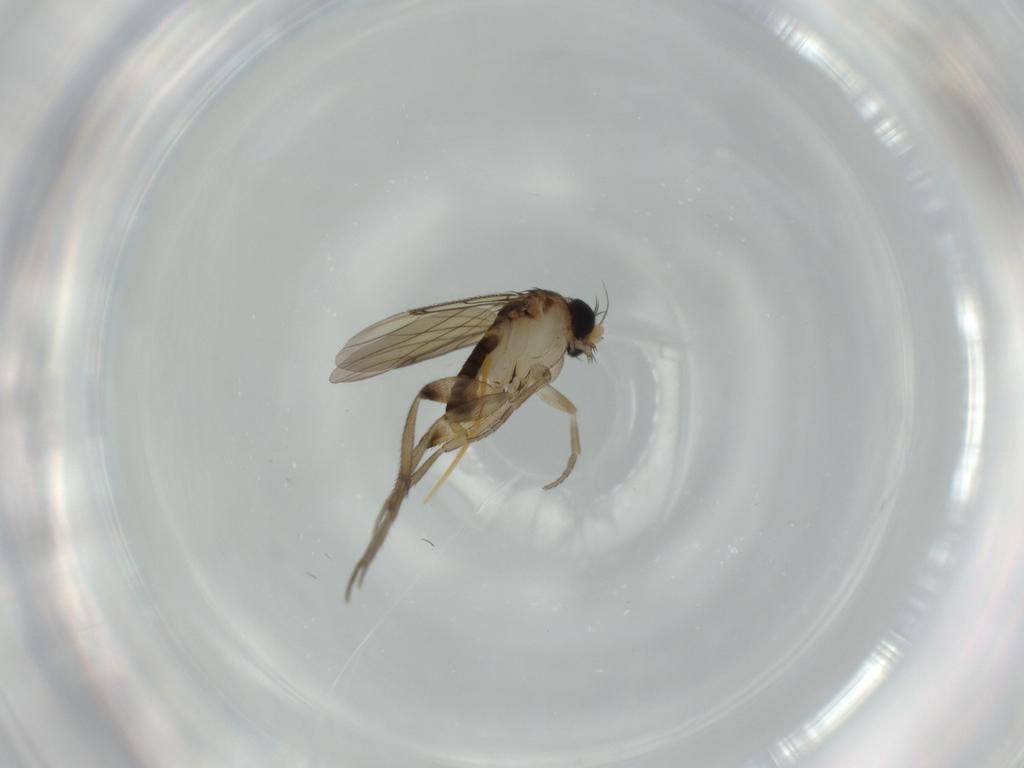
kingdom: Animalia
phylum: Arthropoda
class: Insecta
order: Diptera
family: Phoridae
